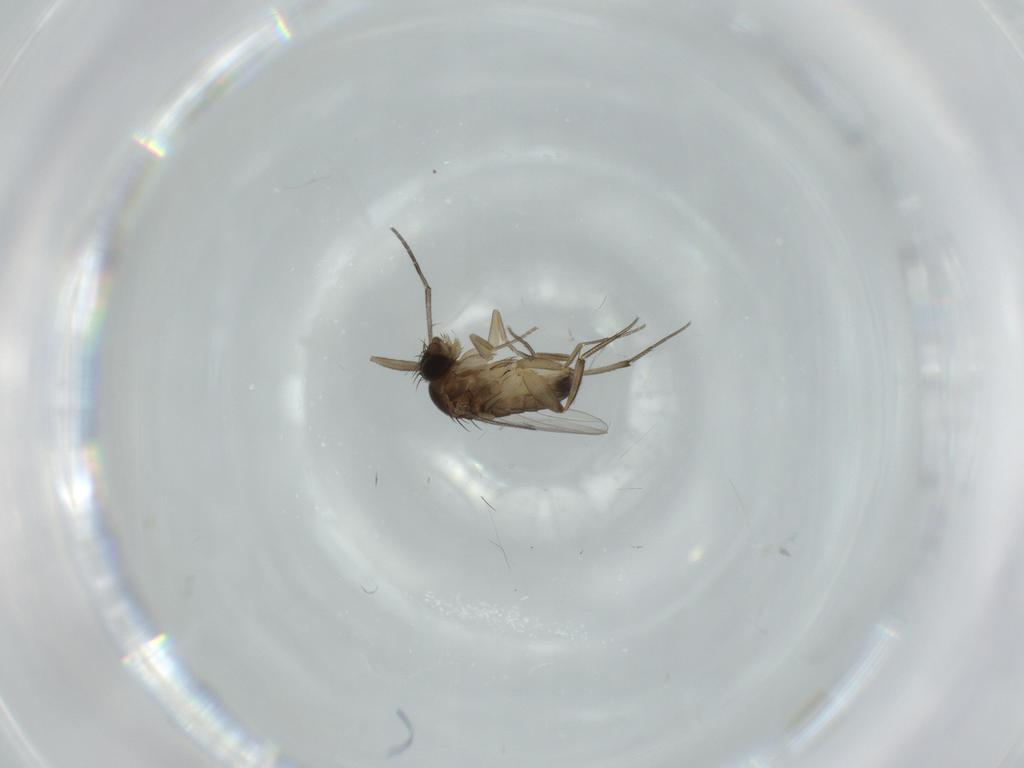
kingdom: Animalia
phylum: Arthropoda
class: Insecta
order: Diptera
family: Phoridae
